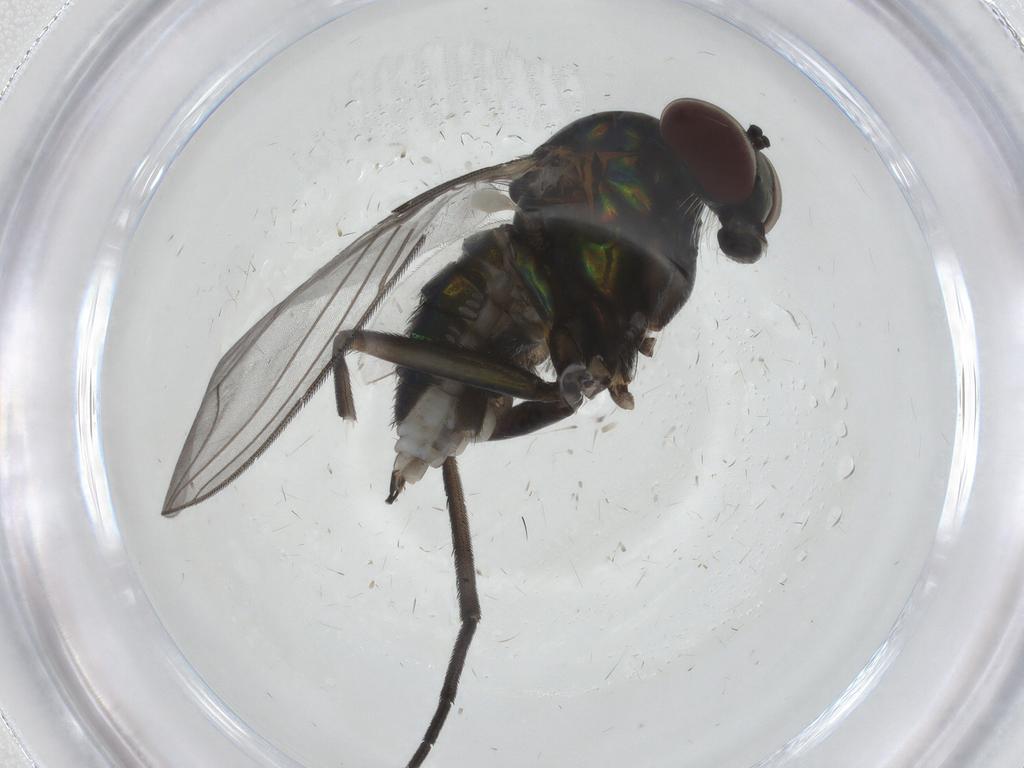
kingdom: Animalia
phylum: Arthropoda
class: Insecta
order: Diptera
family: Dolichopodidae
